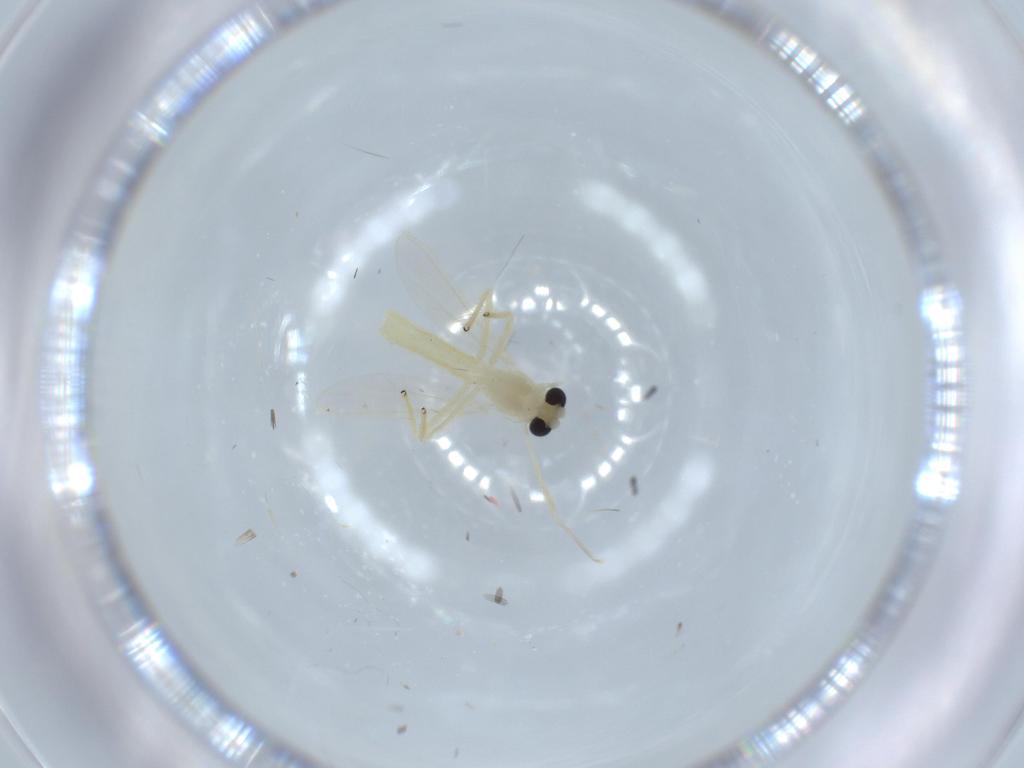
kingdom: Animalia
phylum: Arthropoda
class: Insecta
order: Diptera
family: Chironomidae
